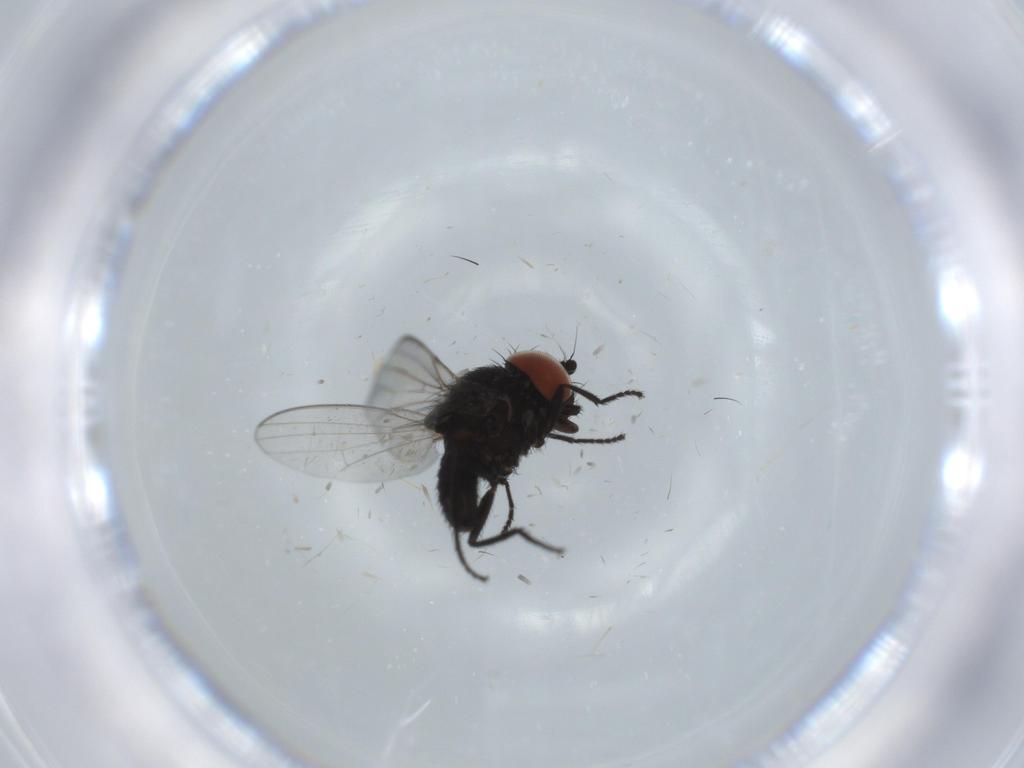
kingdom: Animalia
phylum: Arthropoda
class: Insecta
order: Diptera
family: Milichiidae
